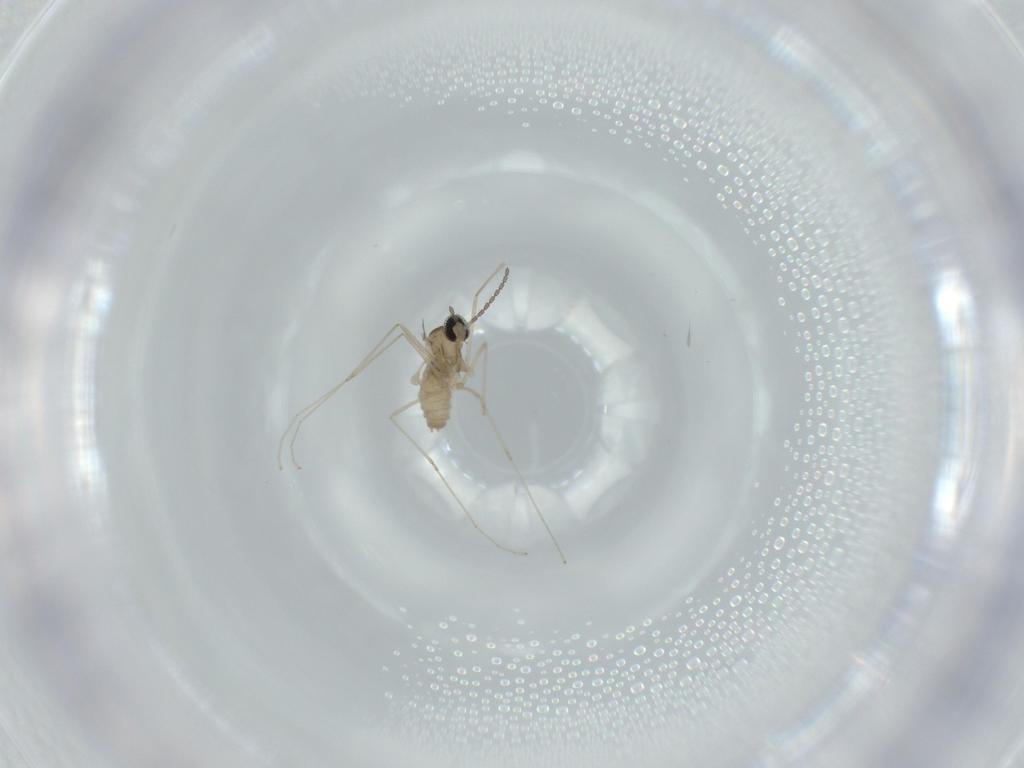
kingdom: Animalia
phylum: Arthropoda
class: Insecta
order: Diptera
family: Cecidomyiidae
